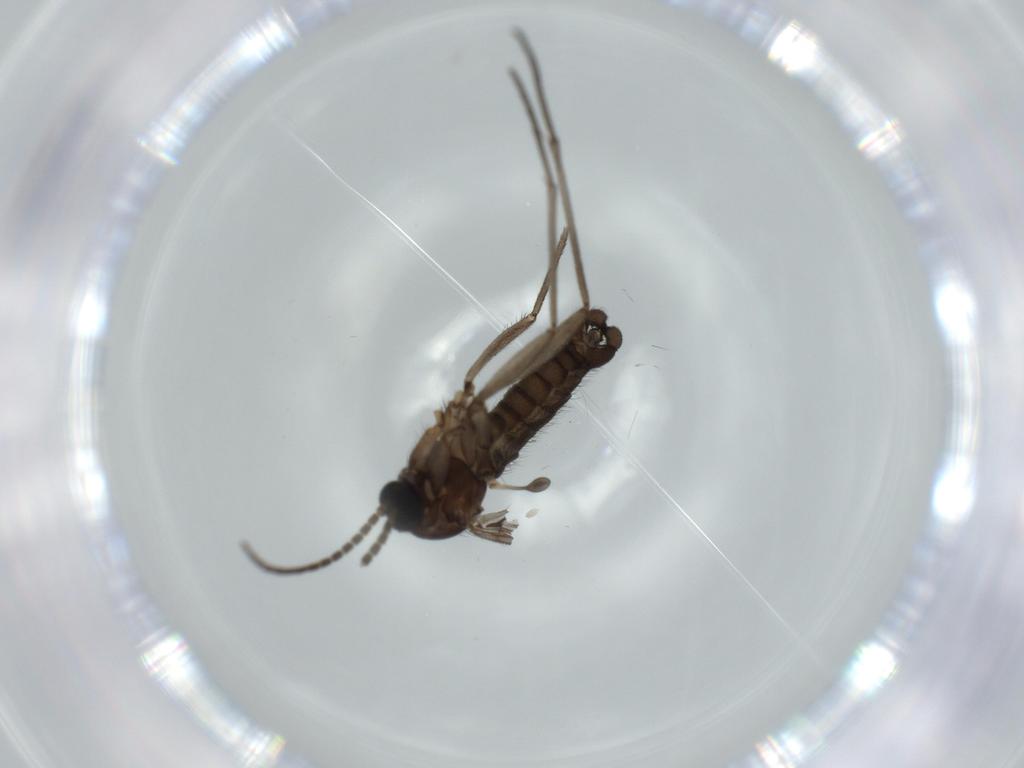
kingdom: Animalia
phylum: Arthropoda
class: Insecta
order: Diptera
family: Sciaridae
